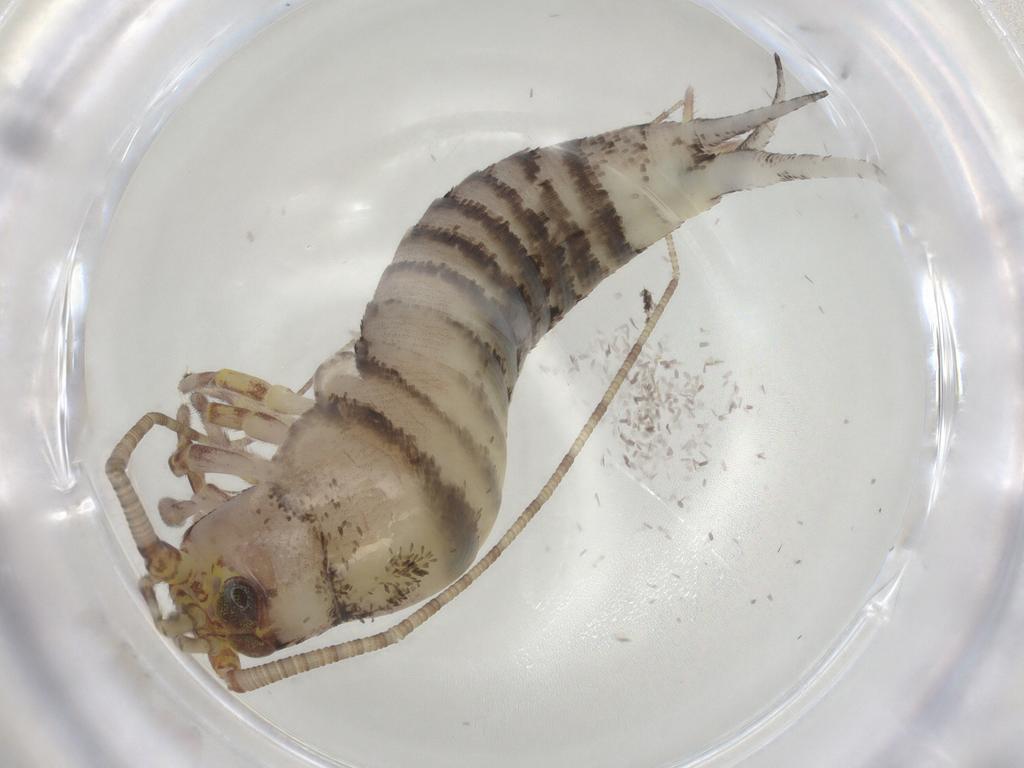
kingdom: Animalia
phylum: Arthropoda
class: Insecta
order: Archaeognatha
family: Machilidae
